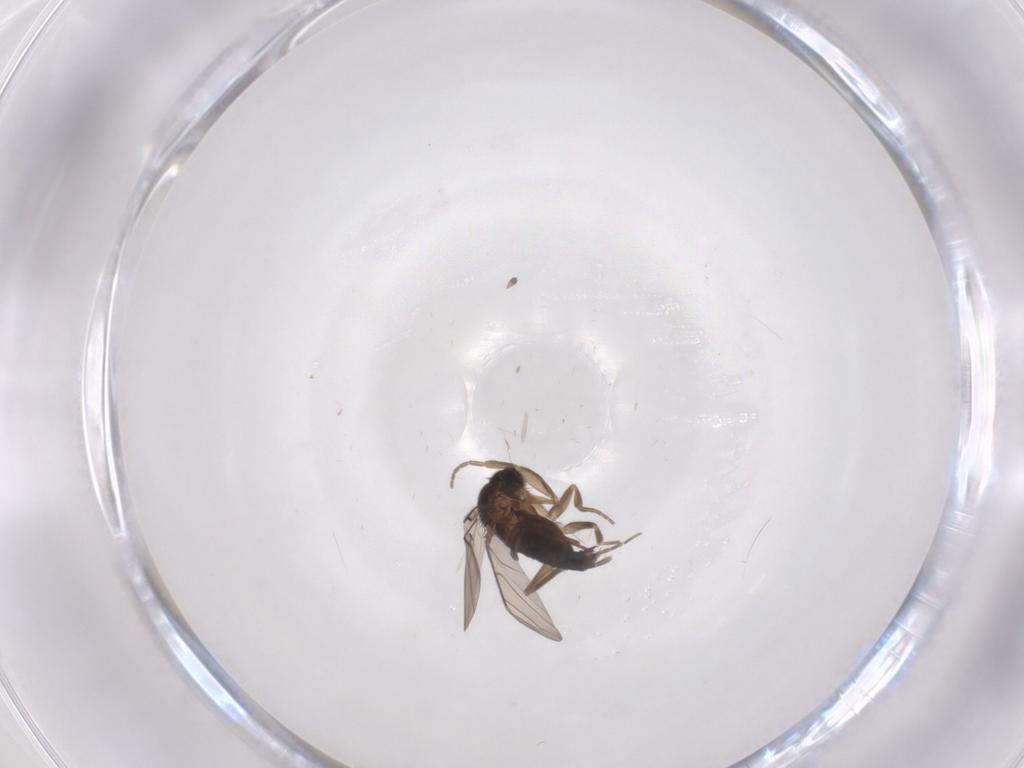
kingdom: Animalia
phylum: Arthropoda
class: Insecta
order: Diptera
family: Phoridae
